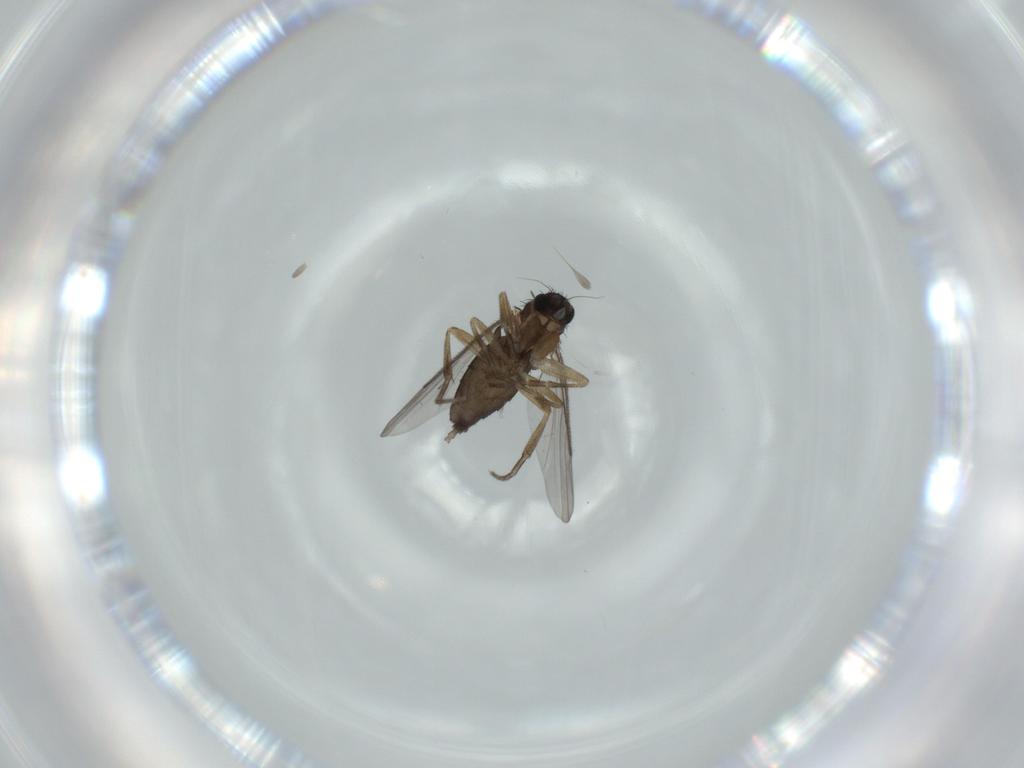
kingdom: Animalia
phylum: Arthropoda
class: Insecta
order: Diptera
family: Phoridae
